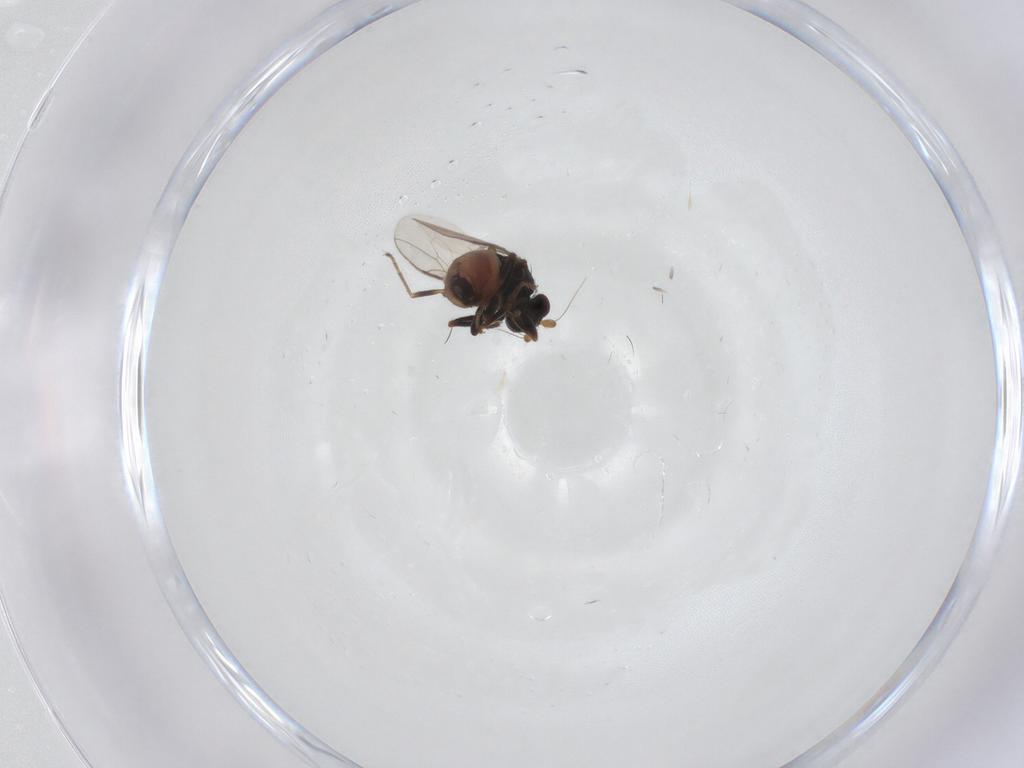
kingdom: Animalia
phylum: Arthropoda
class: Insecta
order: Diptera
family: Sphaeroceridae
